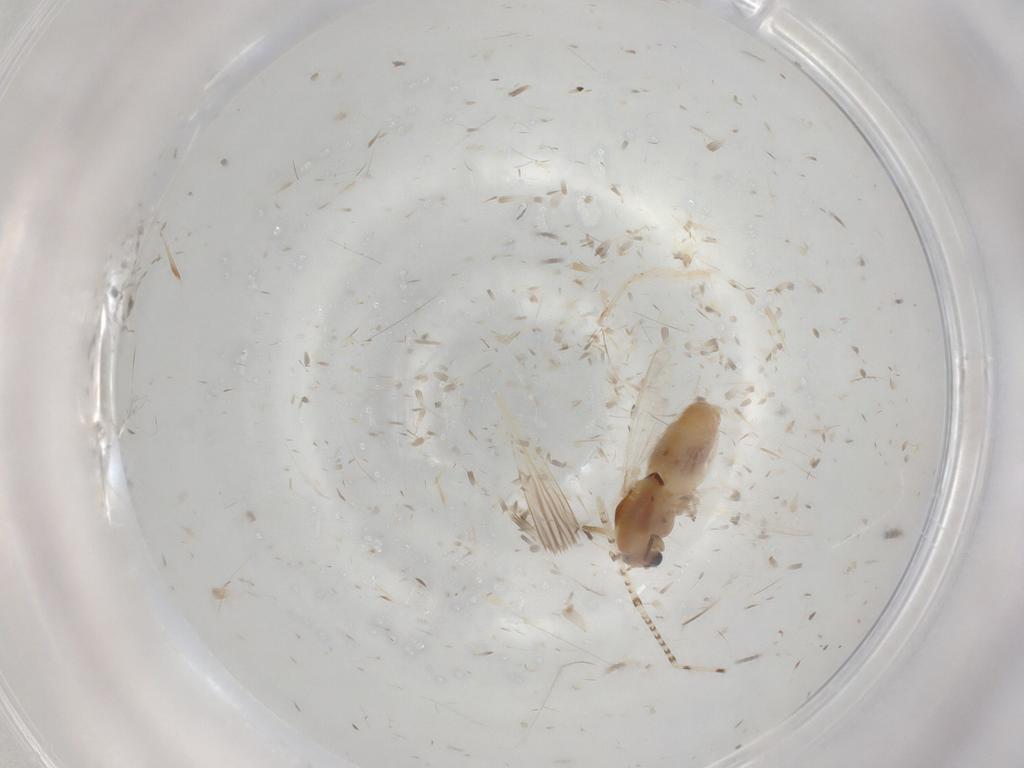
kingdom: Animalia
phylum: Arthropoda
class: Insecta
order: Diptera
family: Chironomidae
